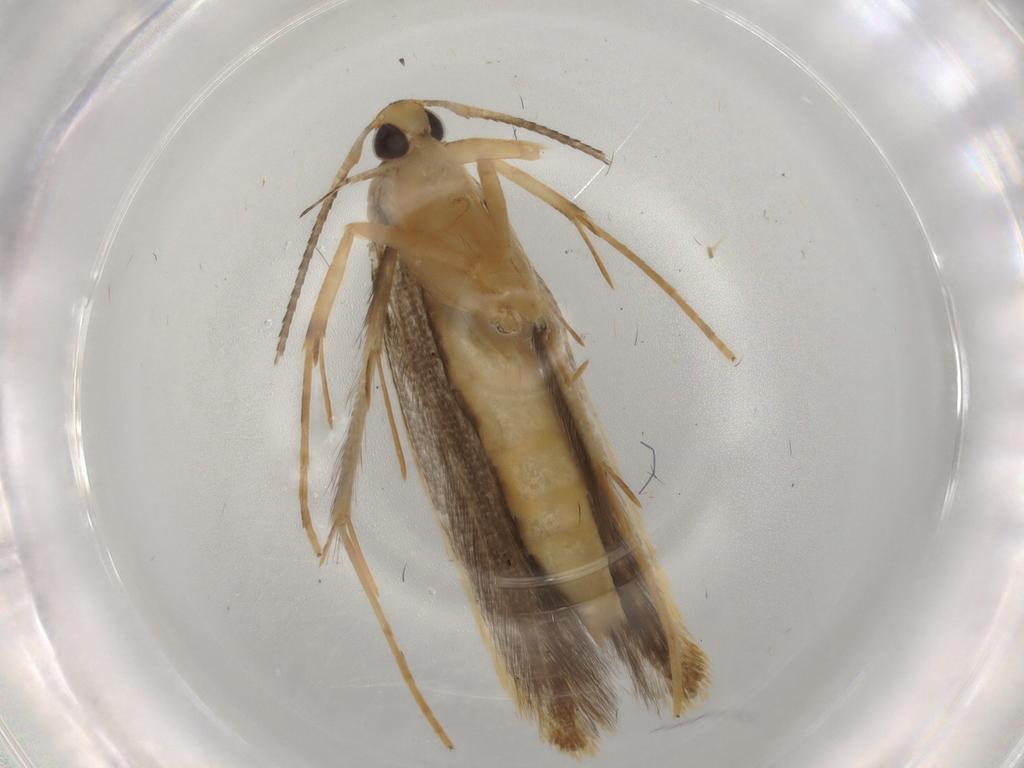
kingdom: Animalia
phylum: Arthropoda
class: Insecta
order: Lepidoptera
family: Pterolonchidae
